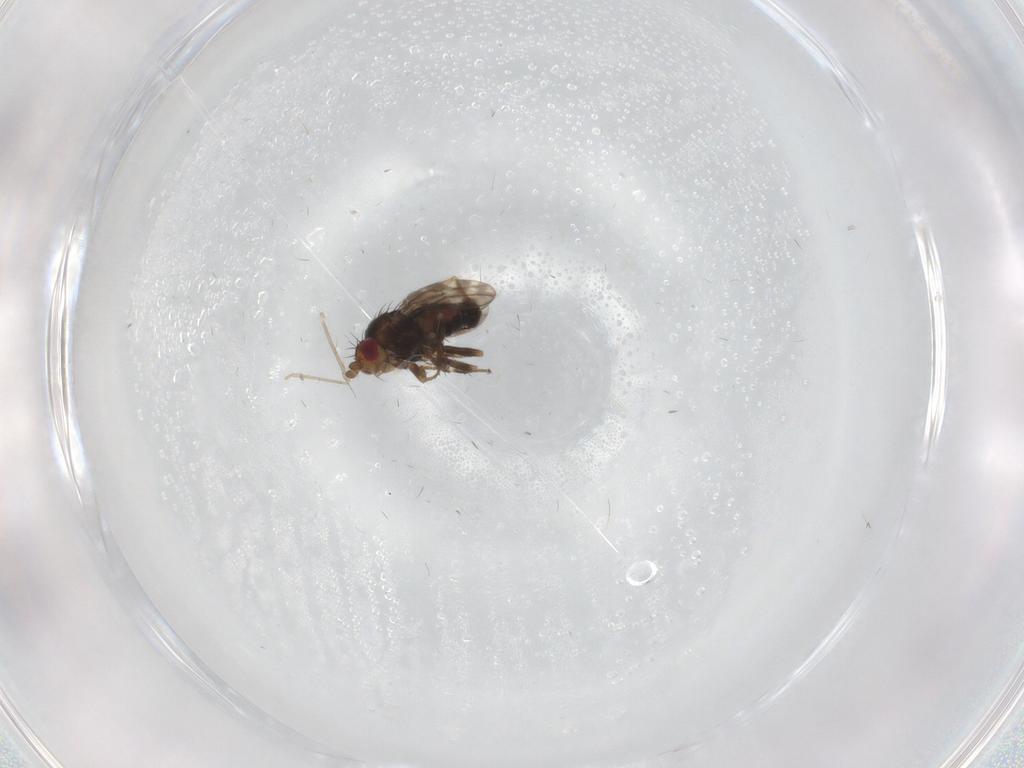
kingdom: Animalia
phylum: Arthropoda
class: Insecta
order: Diptera
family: Sphaeroceridae
